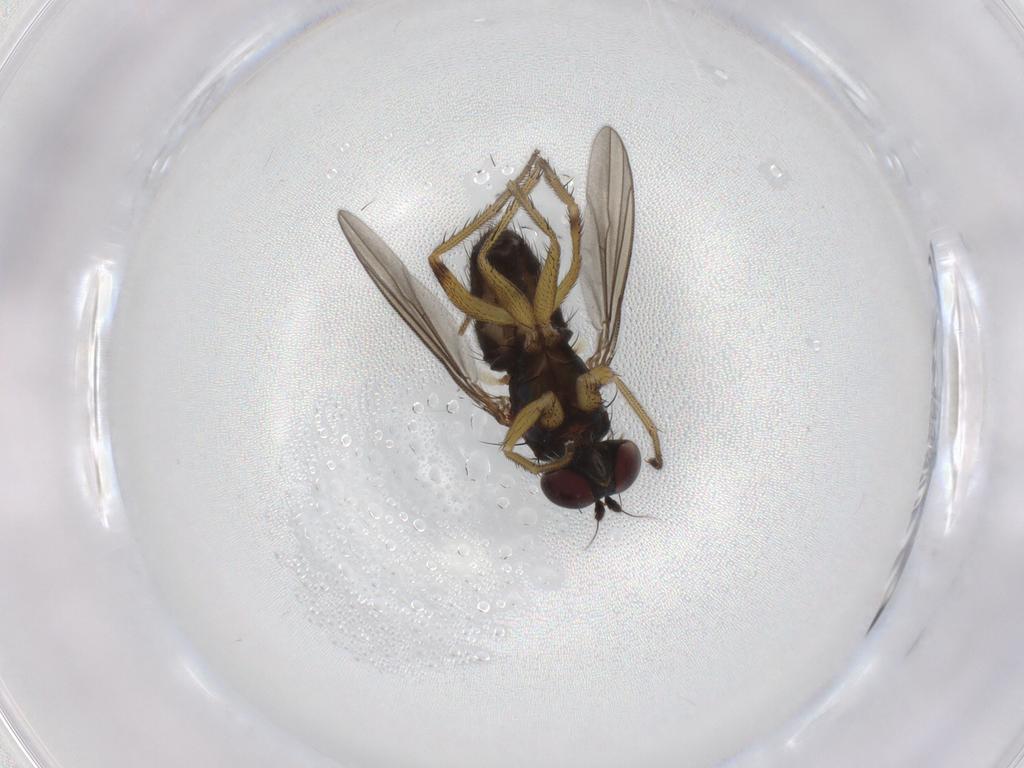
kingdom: Animalia
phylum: Arthropoda
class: Insecta
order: Diptera
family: Dolichopodidae
